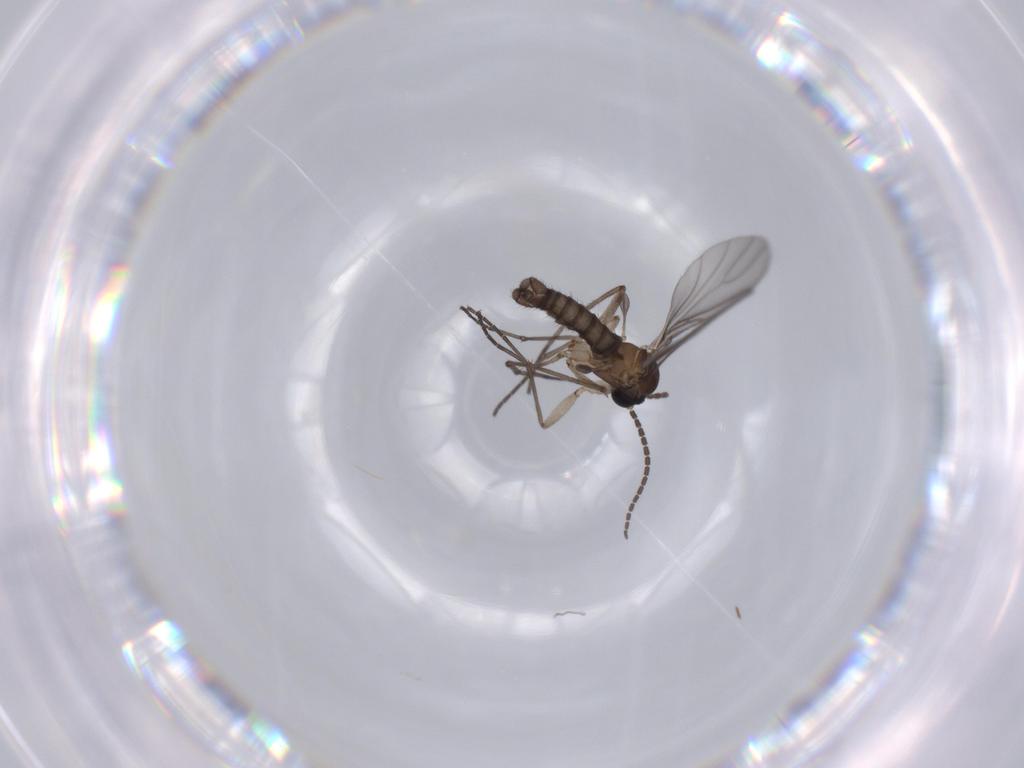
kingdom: Animalia
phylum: Arthropoda
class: Insecta
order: Diptera
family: Sciaridae
